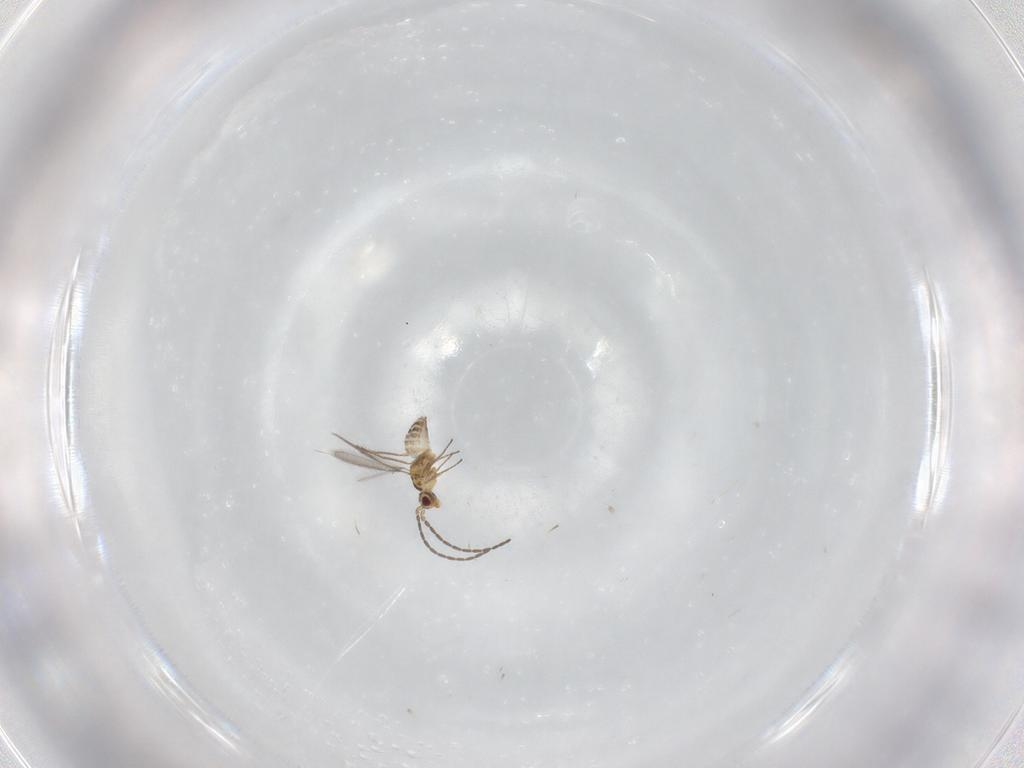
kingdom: Animalia
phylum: Arthropoda
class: Insecta
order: Hymenoptera
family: Scelionidae
